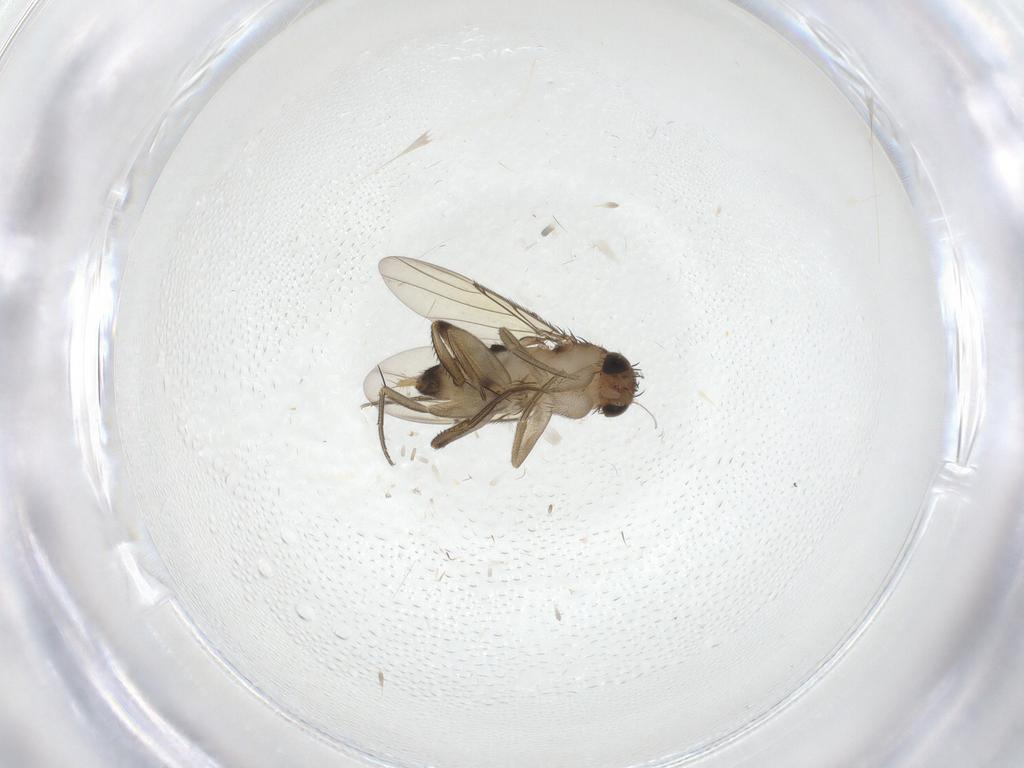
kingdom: Animalia
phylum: Arthropoda
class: Insecta
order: Diptera
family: Phoridae
